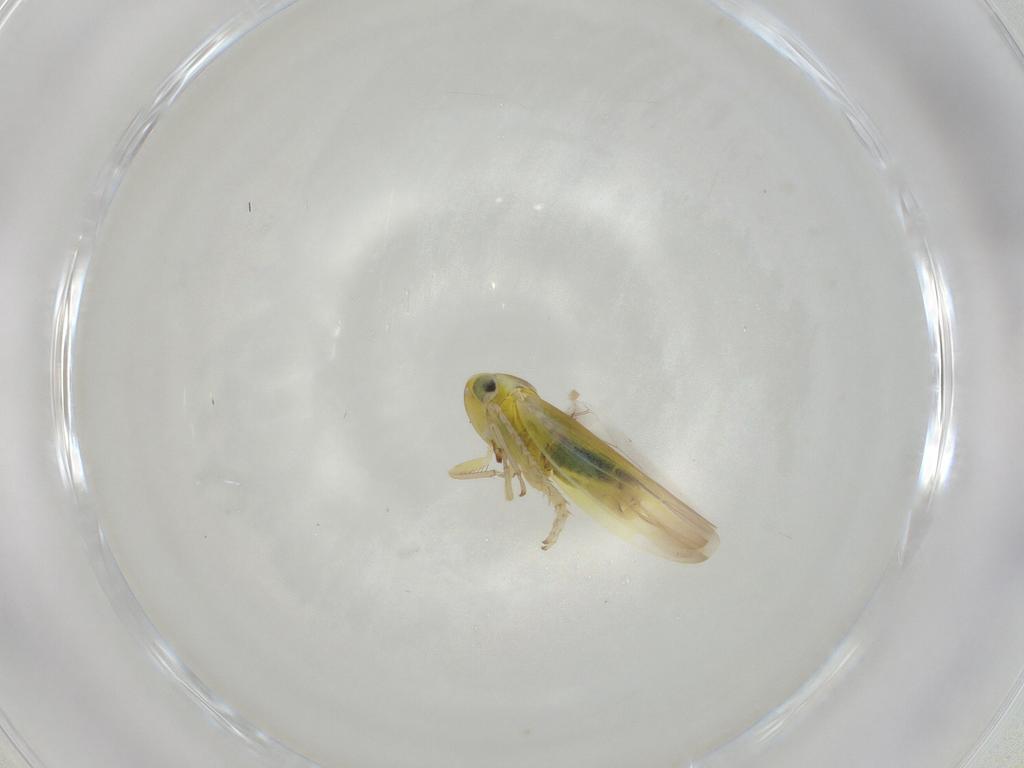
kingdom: Animalia
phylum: Arthropoda
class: Insecta
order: Hemiptera
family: Cicadellidae
